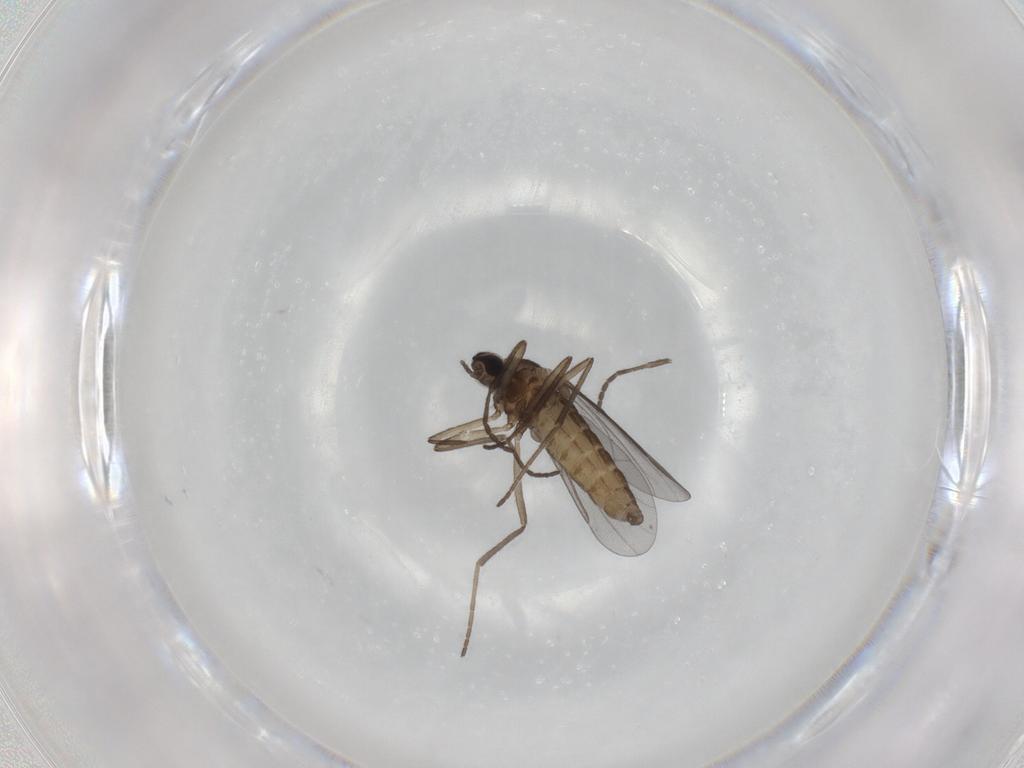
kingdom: Animalia
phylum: Arthropoda
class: Insecta
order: Diptera
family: Cecidomyiidae
